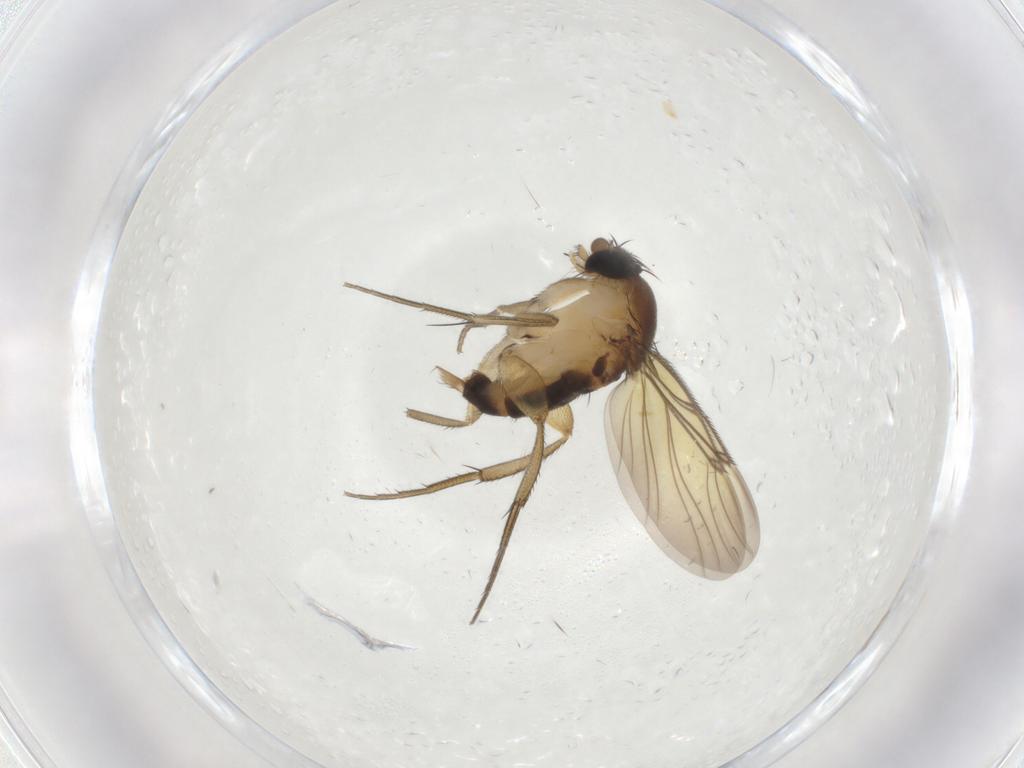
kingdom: Animalia
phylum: Arthropoda
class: Insecta
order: Diptera
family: Phoridae
